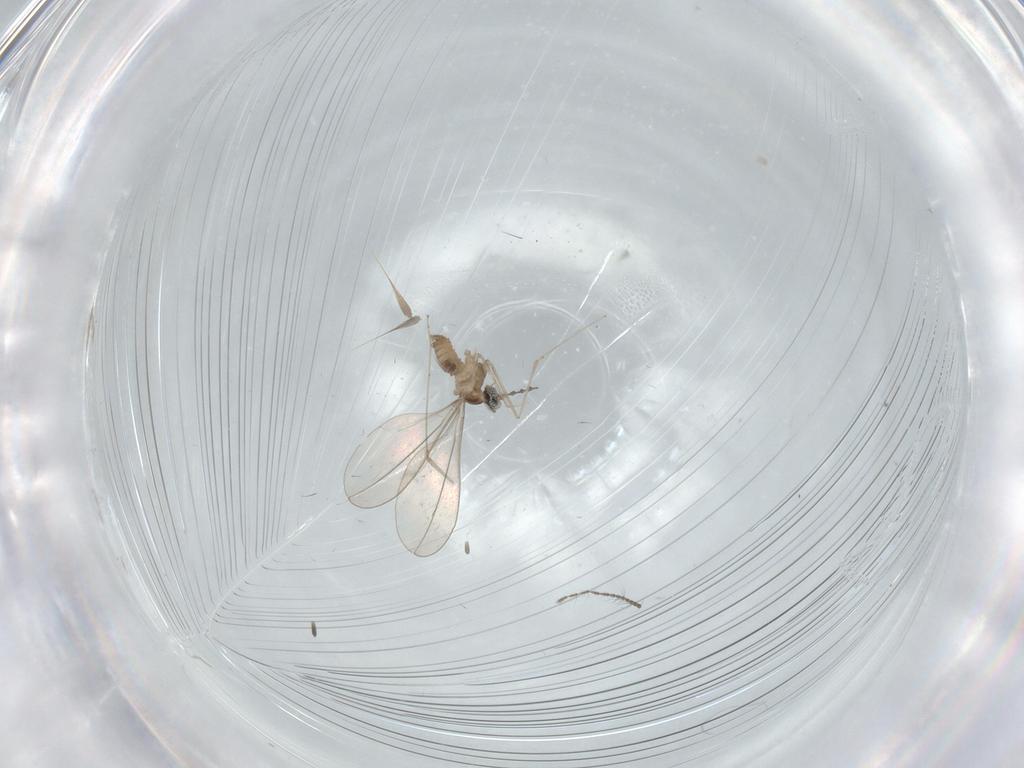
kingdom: Animalia
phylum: Arthropoda
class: Insecta
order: Diptera
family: Cecidomyiidae
